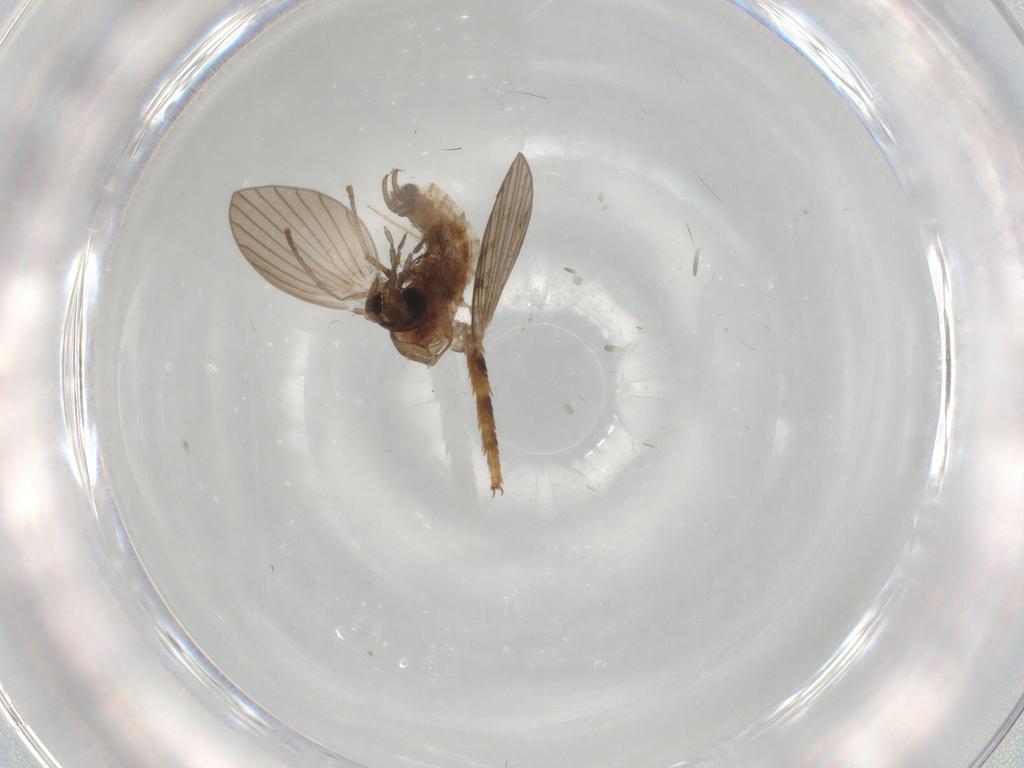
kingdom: Animalia
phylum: Arthropoda
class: Insecta
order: Diptera
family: Psychodidae
